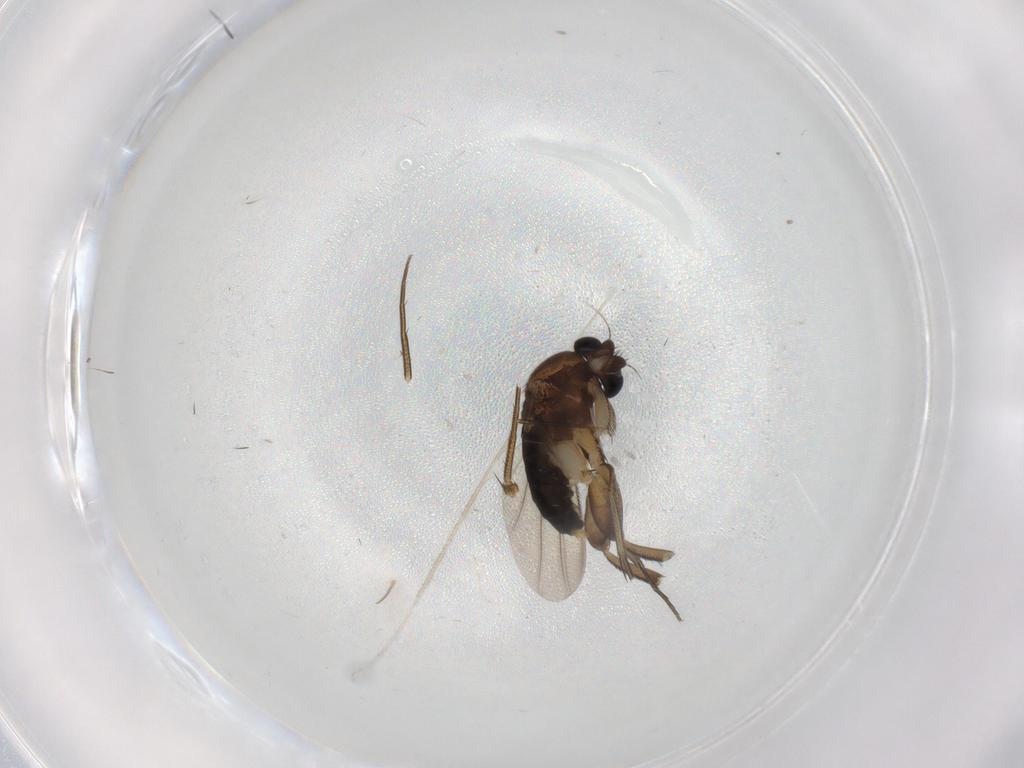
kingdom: Animalia
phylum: Arthropoda
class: Insecta
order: Diptera
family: Phoridae
